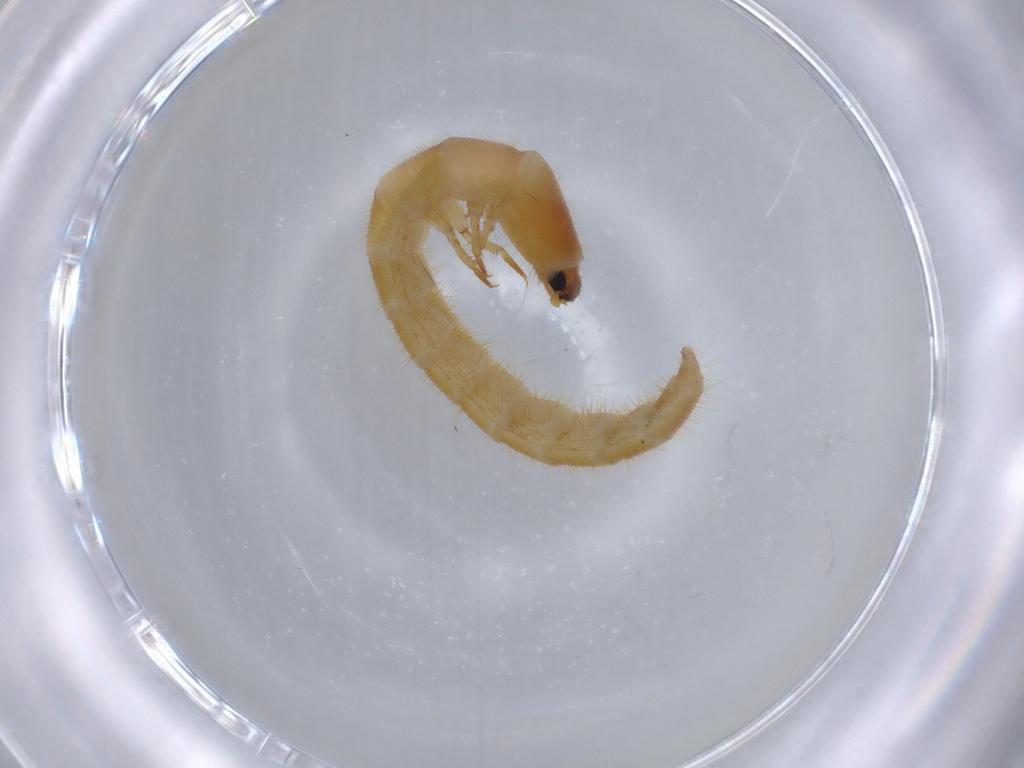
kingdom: Animalia
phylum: Arthropoda
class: Insecta
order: Coleoptera
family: Phengodidae
